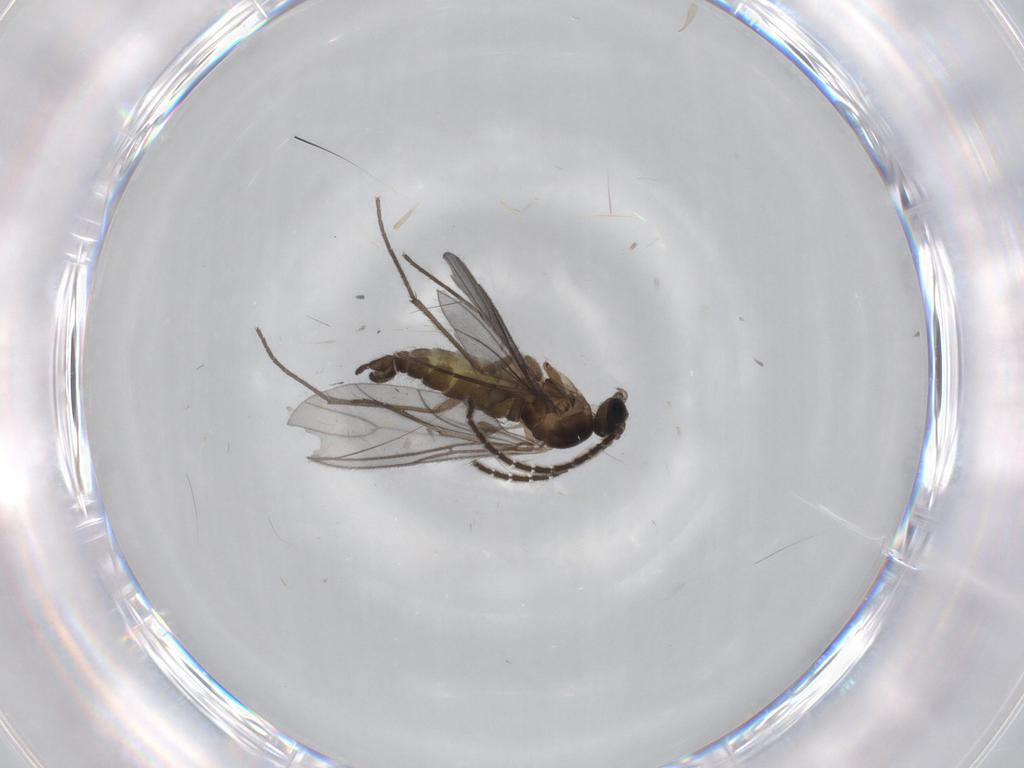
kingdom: Animalia
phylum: Arthropoda
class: Insecta
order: Diptera
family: Chironomidae
